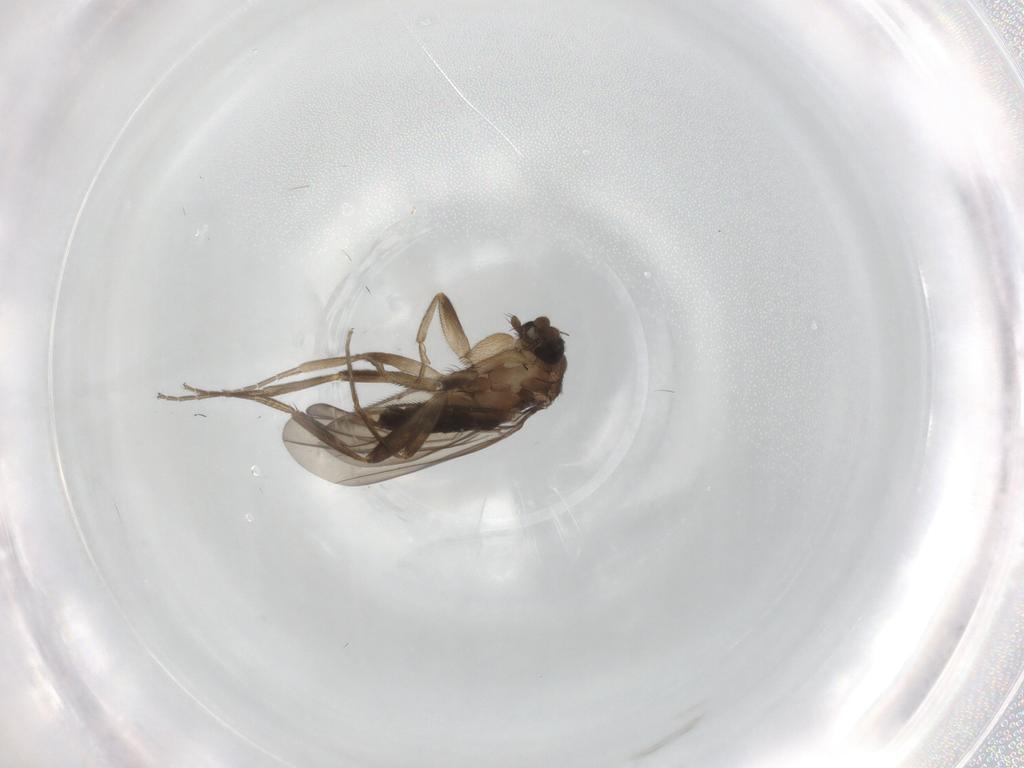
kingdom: Animalia
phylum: Arthropoda
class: Insecta
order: Diptera
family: Phoridae
